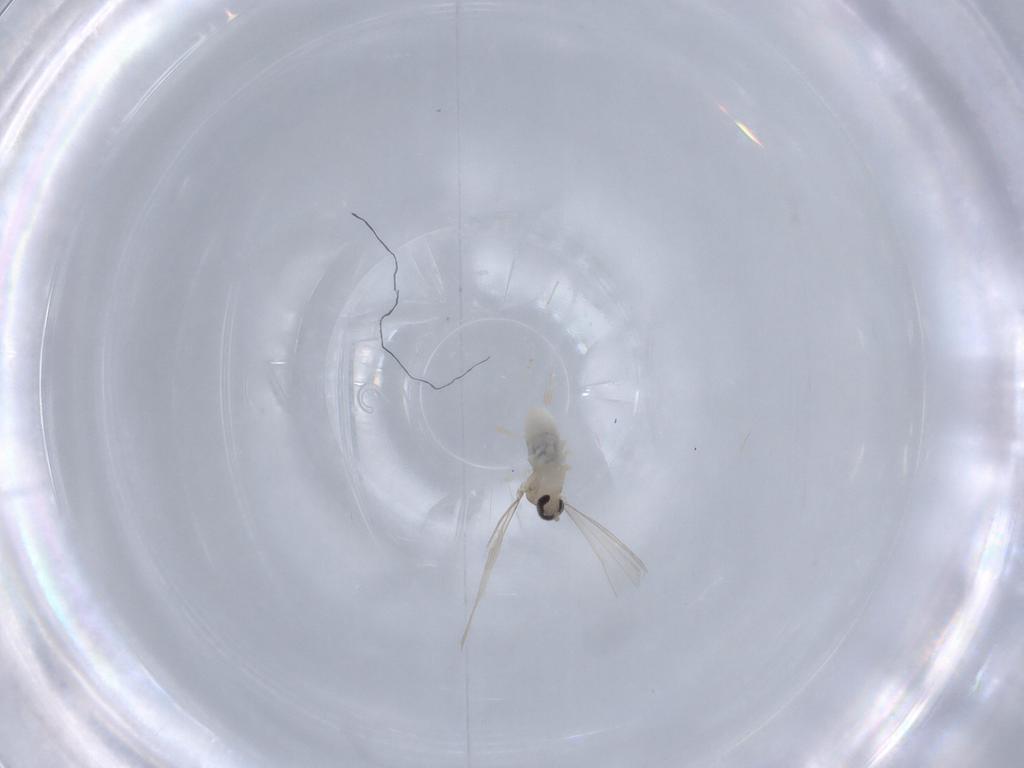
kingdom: Animalia
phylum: Arthropoda
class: Insecta
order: Diptera
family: Cecidomyiidae
